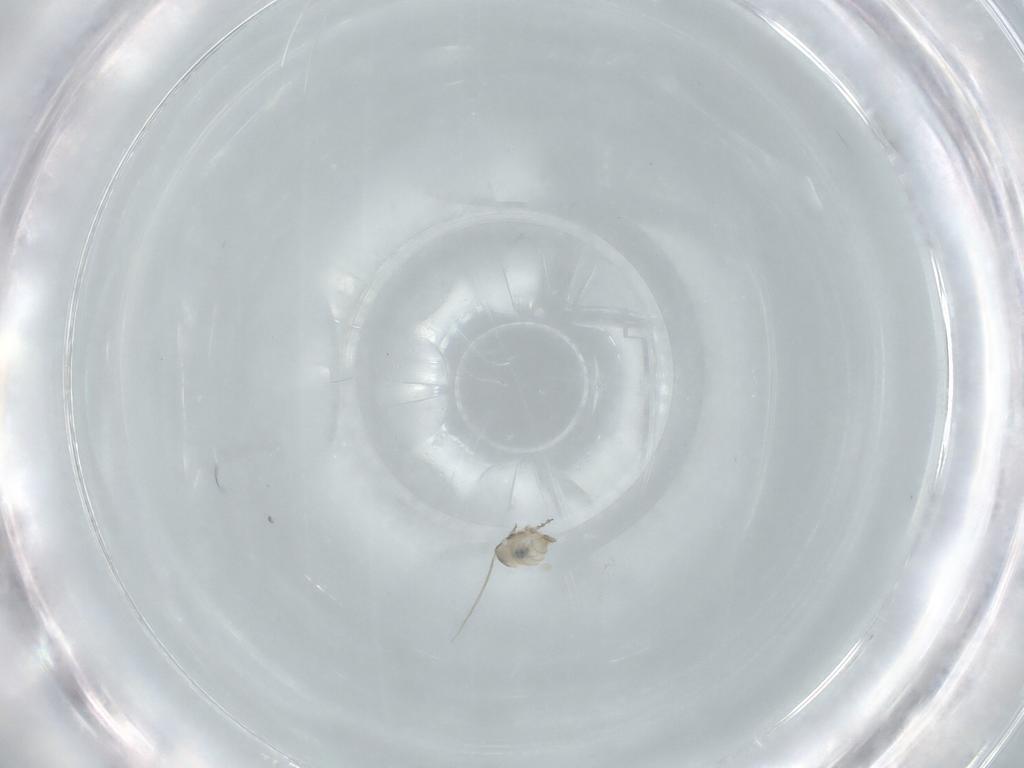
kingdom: Animalia
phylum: Arthropoda
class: Insecta
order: Diptera
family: Cecidomyiidae
